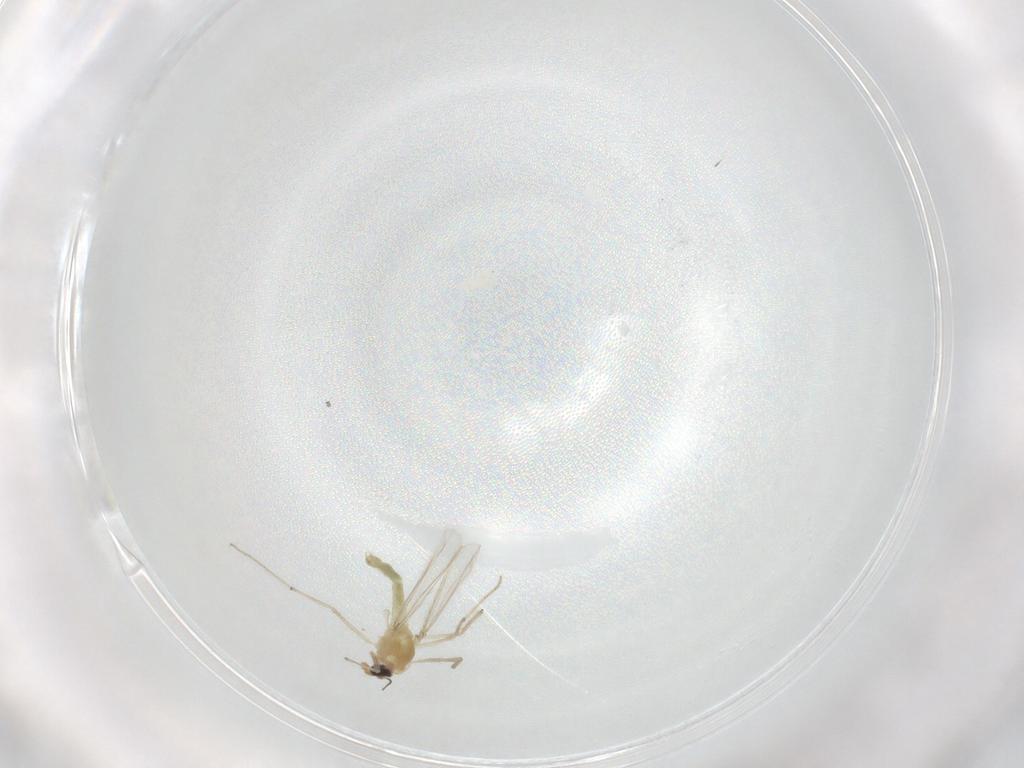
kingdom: Animalia
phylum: Arthropoda
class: Insecta
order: Diptera
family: Chironomidae
